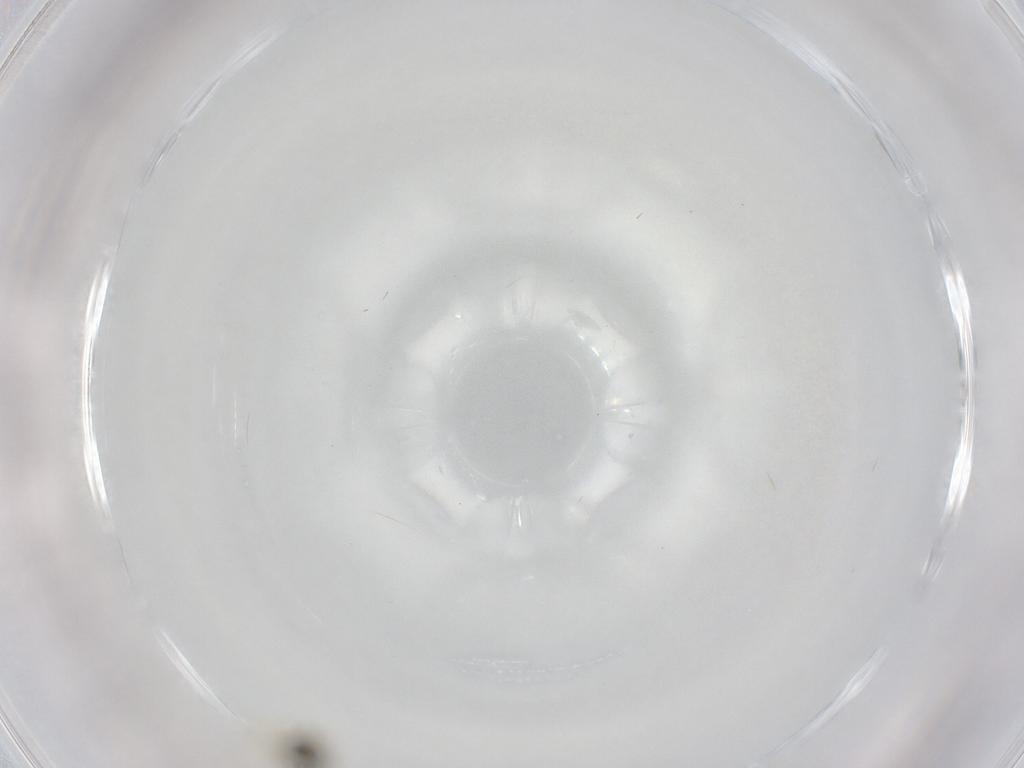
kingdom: Animalia
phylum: Arthropoda
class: Insecta
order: Hemiptera
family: Aleyrodidae
